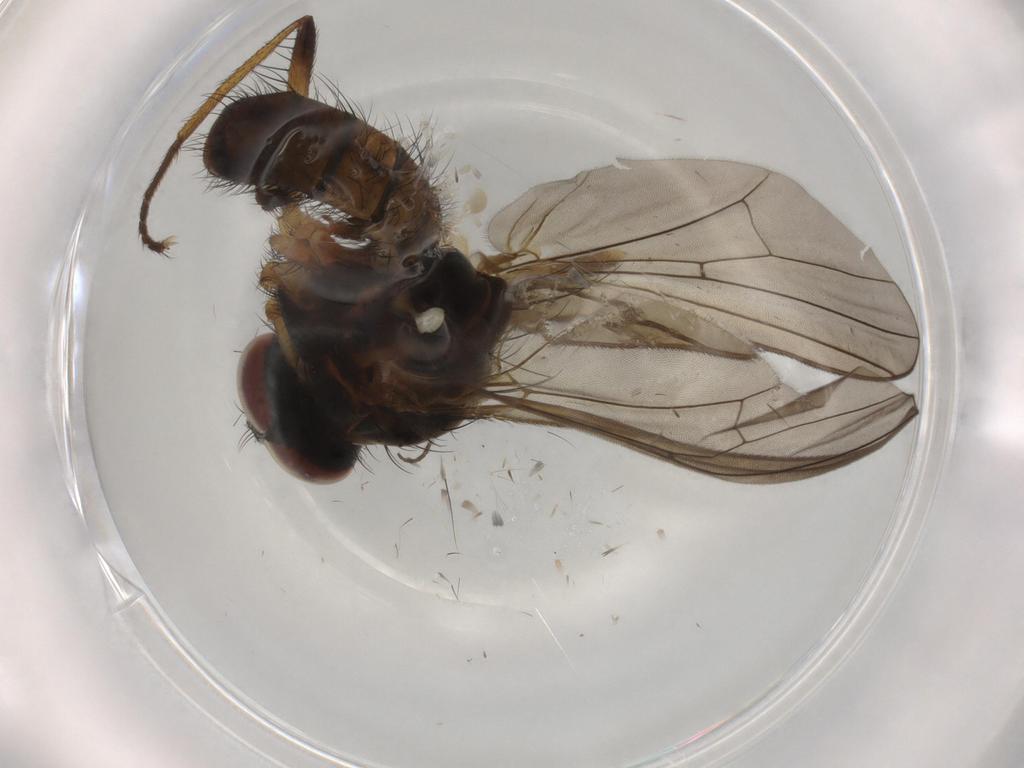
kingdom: Animalia
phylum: Arthropoda
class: Insecta
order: Diptera
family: Anthomyiidae
